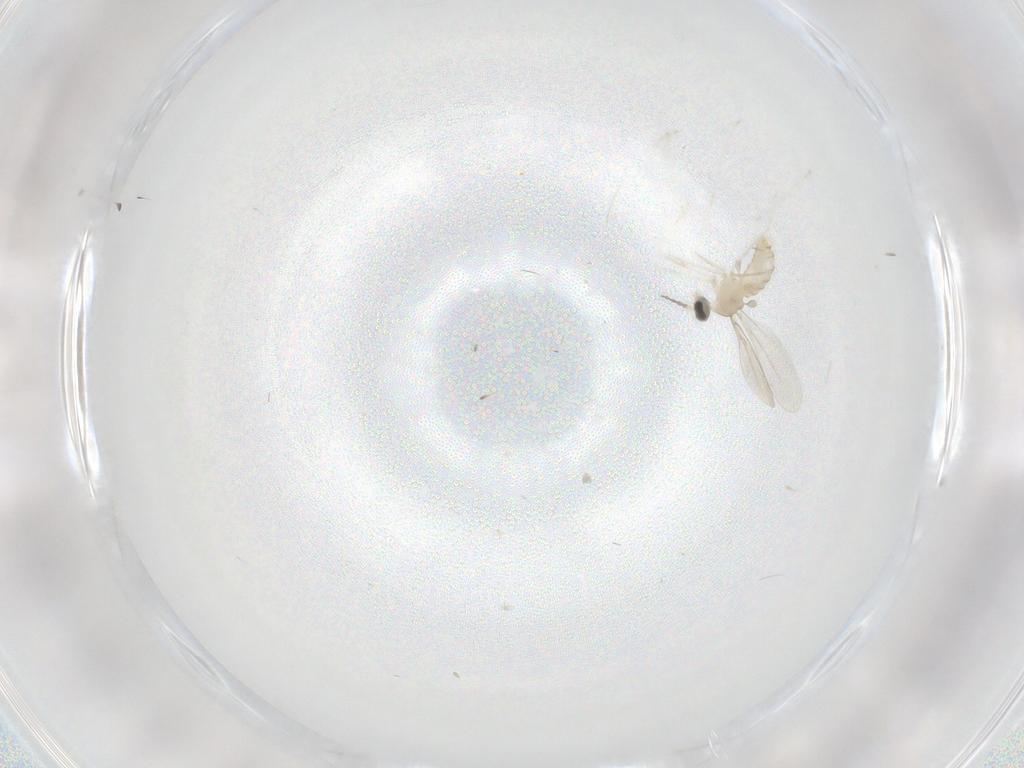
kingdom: Animalia
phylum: Arthropoda
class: Insecta
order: Diptera
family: Cecidomyiidae
